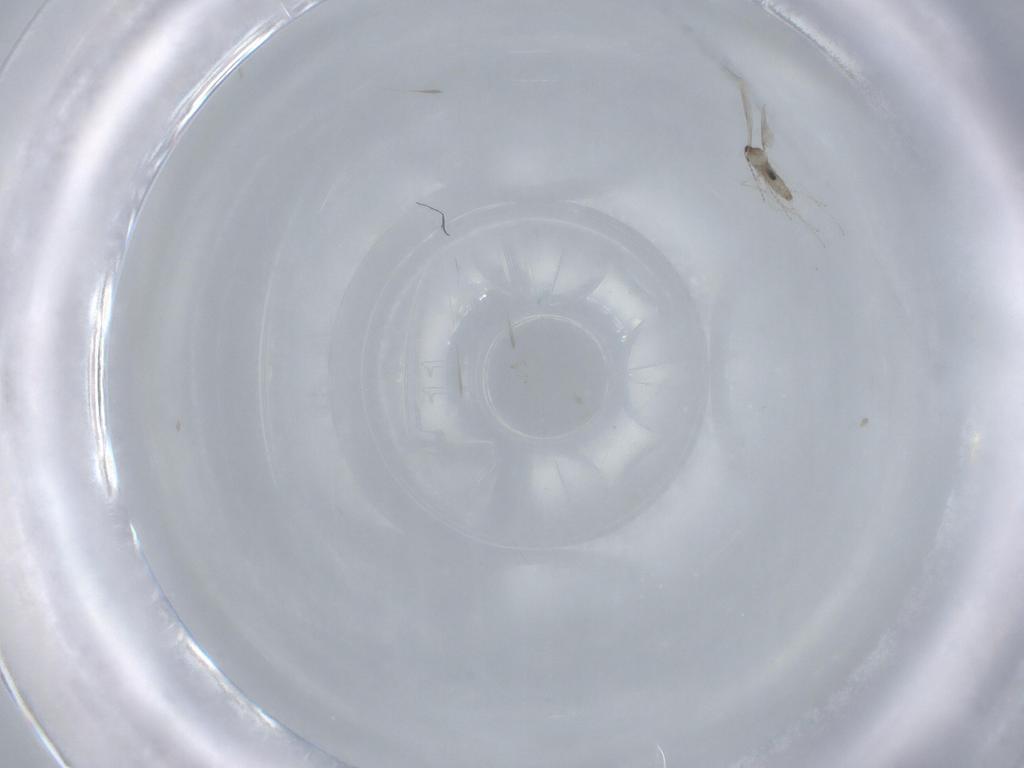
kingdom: Animalia
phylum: Arthropoda
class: Insecta
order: Diptera
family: Cecidomyiidae
